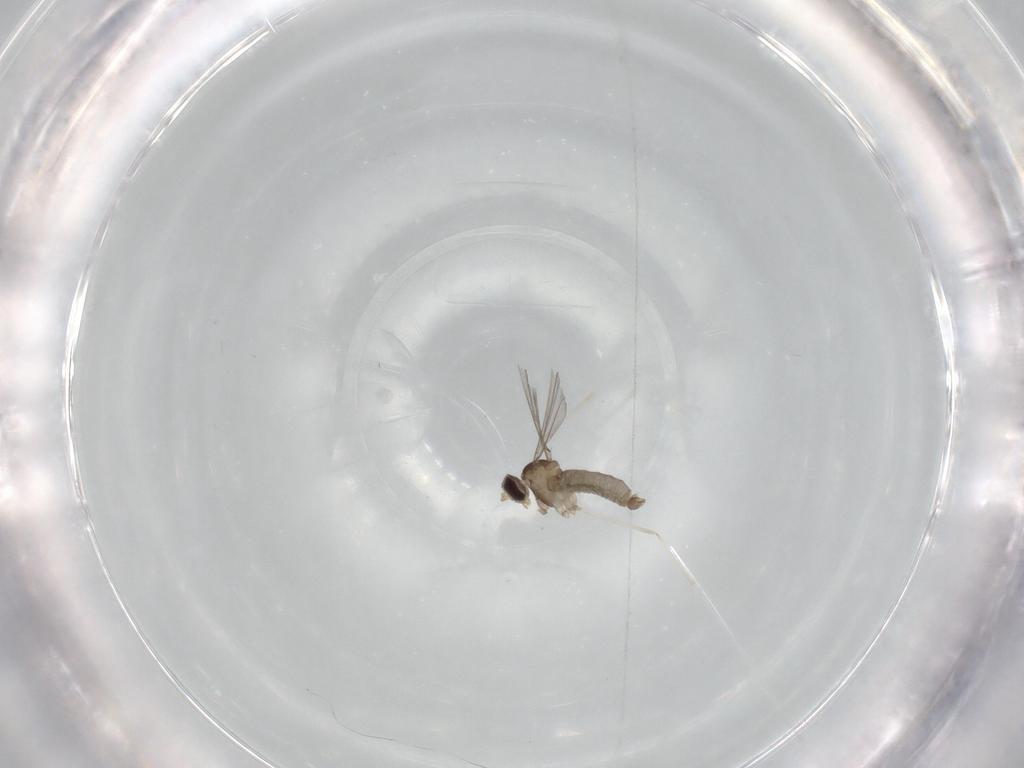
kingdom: Animalia
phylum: Arthropoda
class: Insecta
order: Diptera
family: Cecidomyiidae
